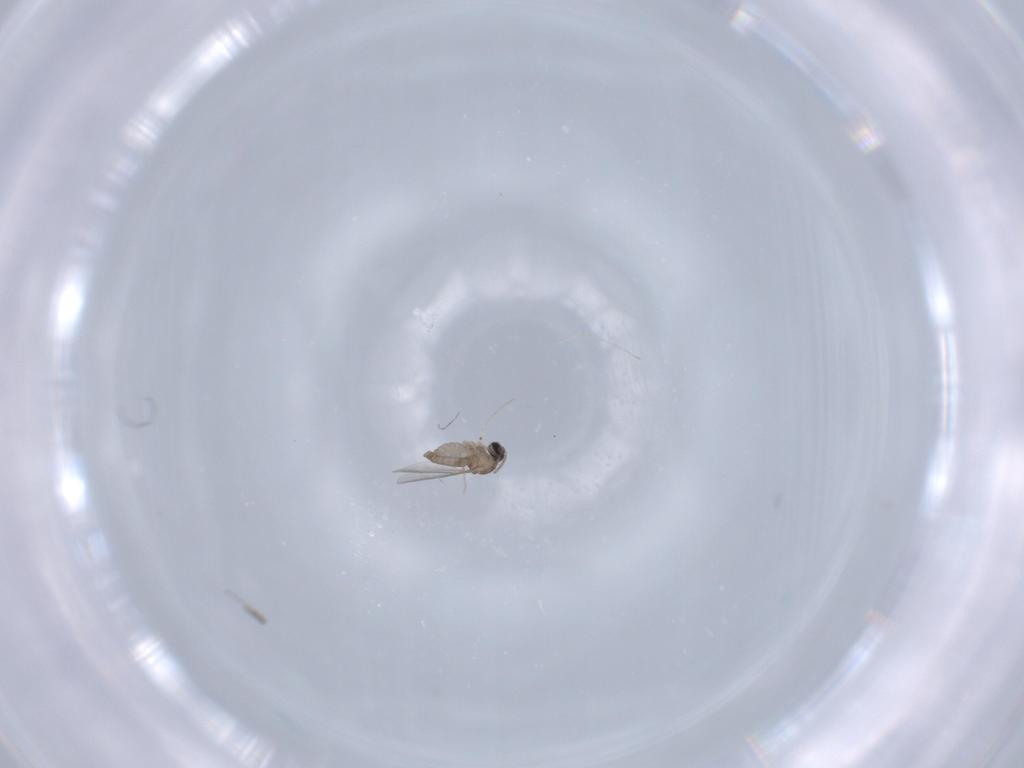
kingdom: Animalia
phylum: Arthropoda
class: Insecta
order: Diptera
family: Cecidomyiidae
